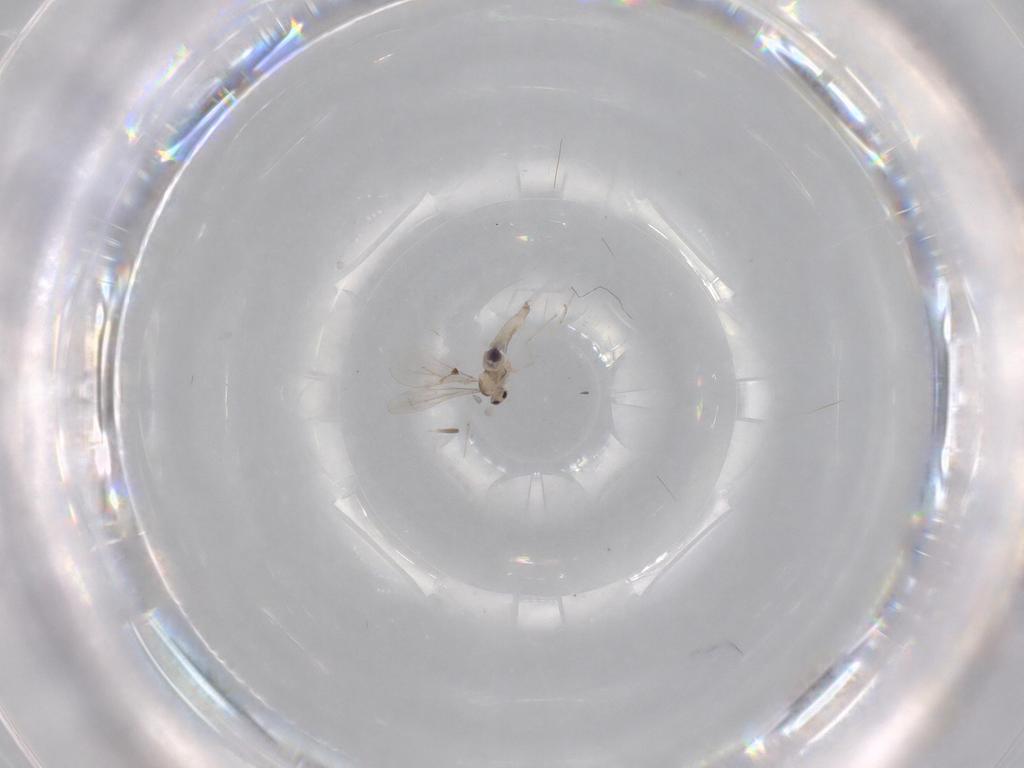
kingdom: Animalia
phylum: Arthropoda
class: Insecta
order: Diptera
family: Cecidomyiidae
